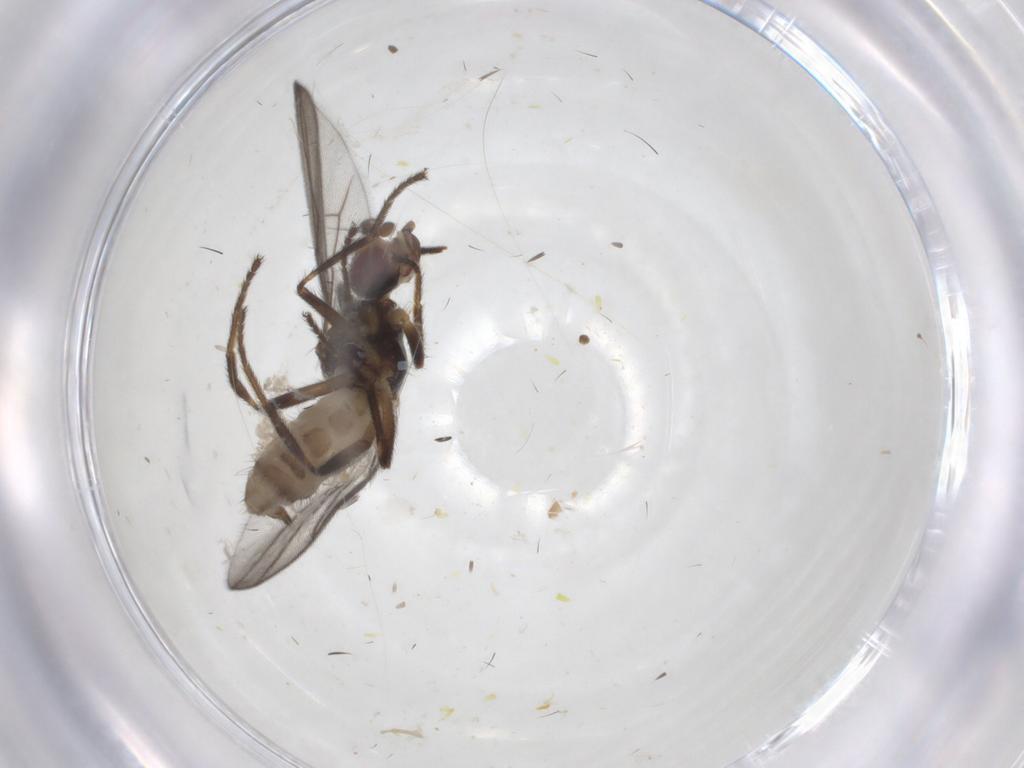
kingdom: Animalia
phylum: Arthropoda
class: Insecta
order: Diptera
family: Chloropidae
